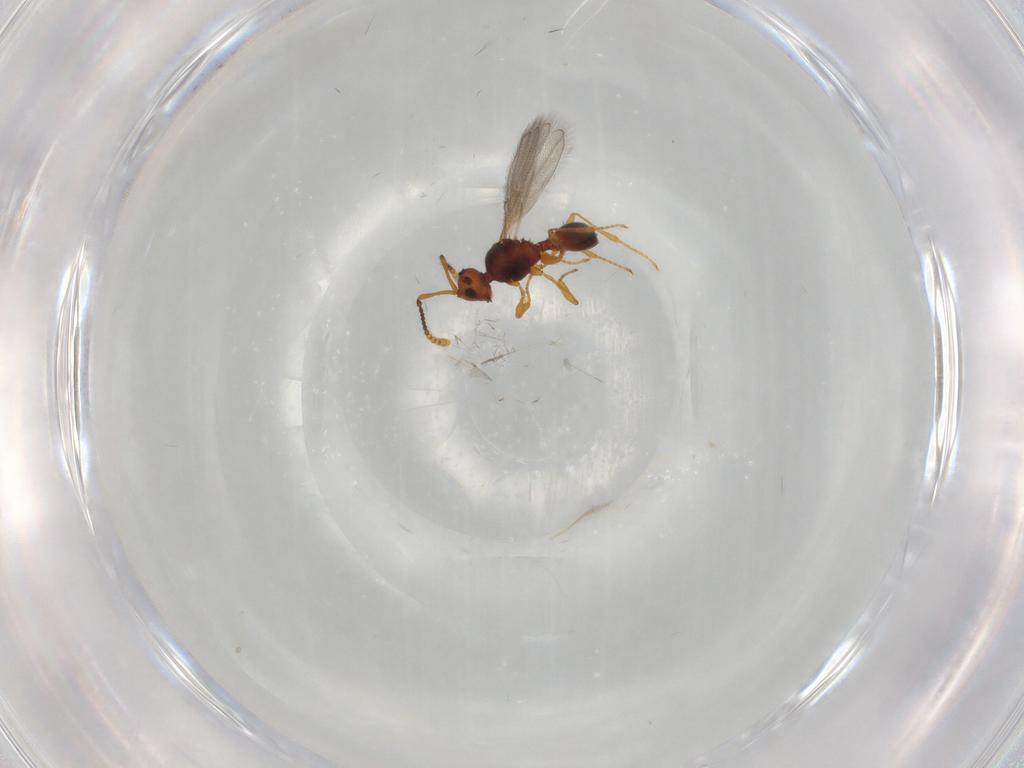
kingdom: Animalia
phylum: Arthropoda
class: Insecta
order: Hymenoptera
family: Diapriidae
